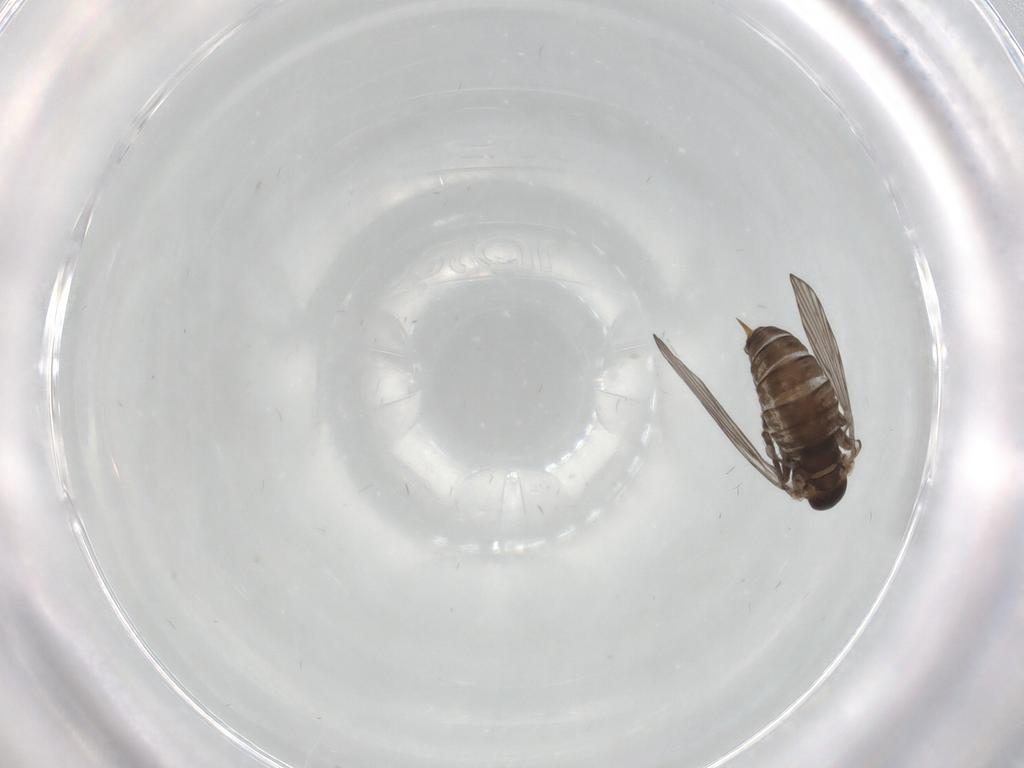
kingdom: Animalia
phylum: Arthropoda
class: Insecta
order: Diptera
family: Psychodidae
